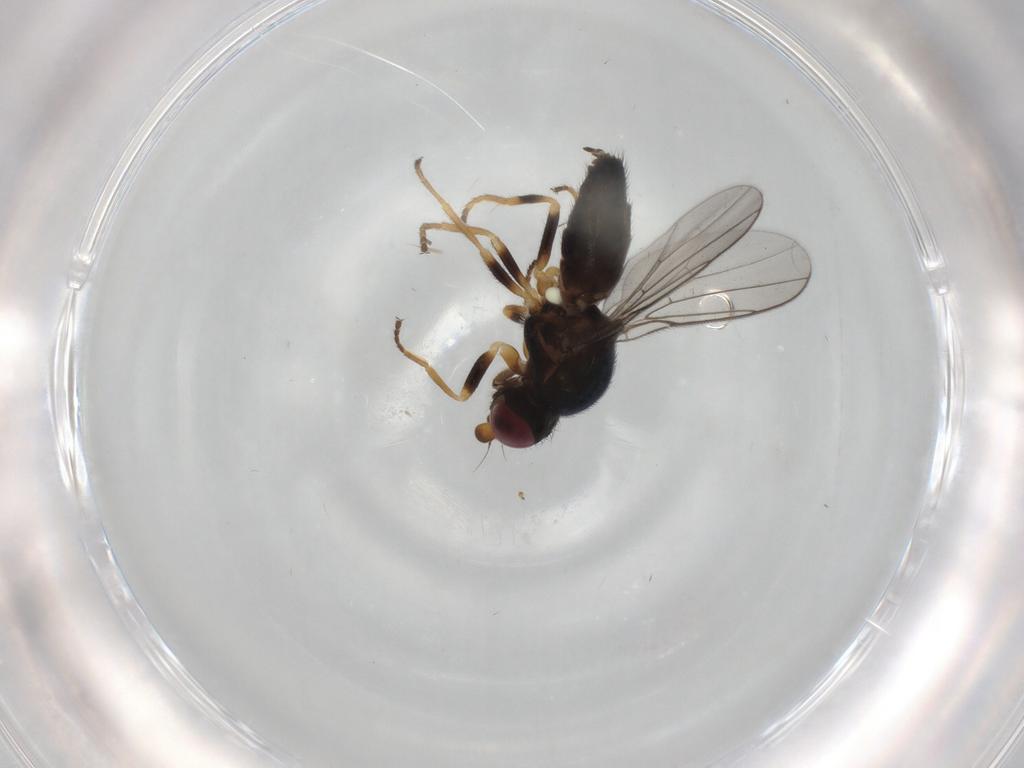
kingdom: Animalia
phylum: Arthropoda
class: Insecta
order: Diptera
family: Chloropidae
